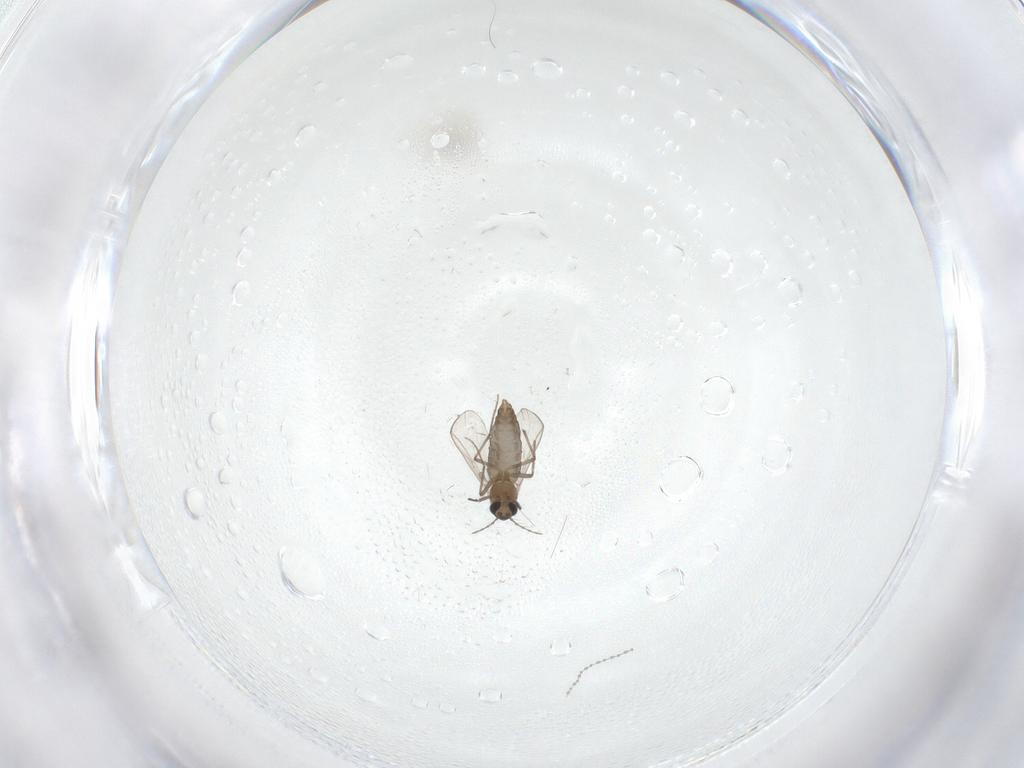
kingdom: Animalia
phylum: Arthropoda
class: Insecta
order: Diptera
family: Chironomidae
